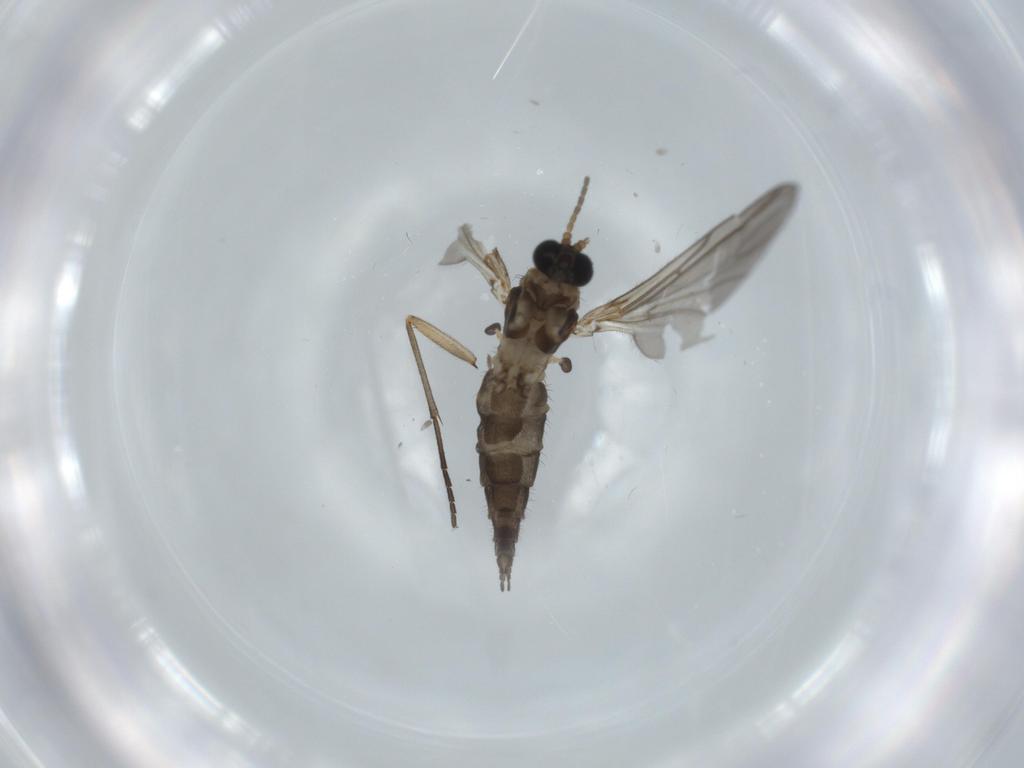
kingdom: Animalia
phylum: Arthropoda
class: Insecta
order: Diptera
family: Sciaridae
